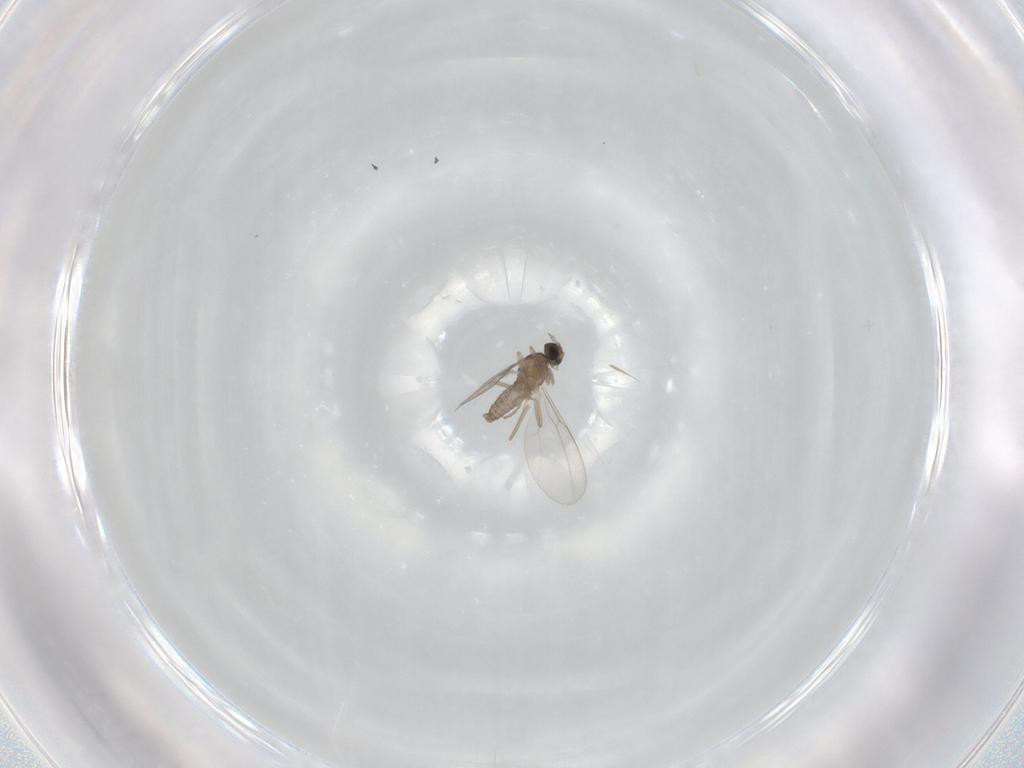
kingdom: Animalia
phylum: Arthropoda
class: Insecta
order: Diptera
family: Cecidomyiidae
